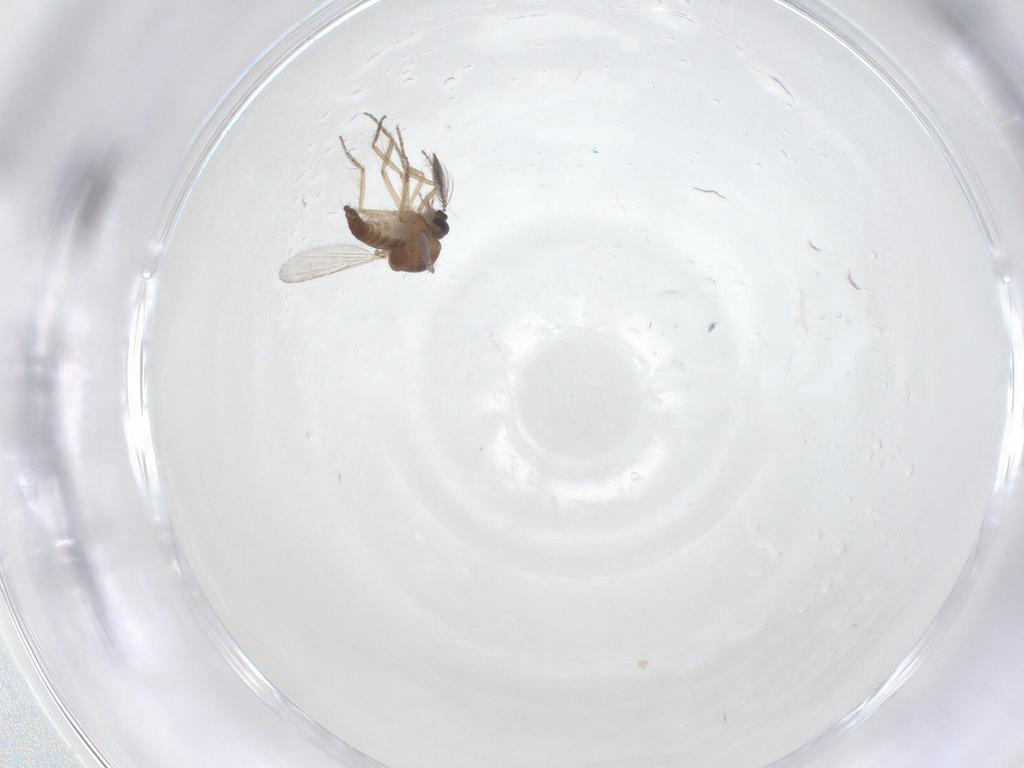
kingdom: Animalia
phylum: Arthropoda
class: Insecta
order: Diptera
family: Ceratopogonidae
